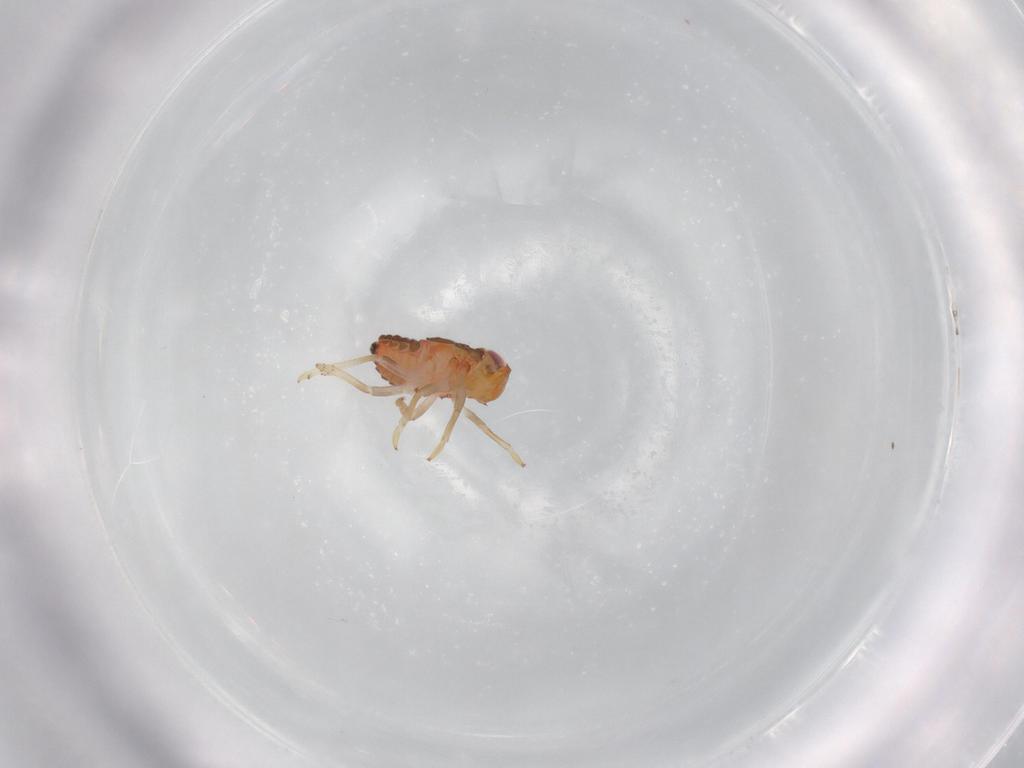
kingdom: Animalia
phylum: Arthropoda
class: Insecta
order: Hemiptera
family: Issidae
